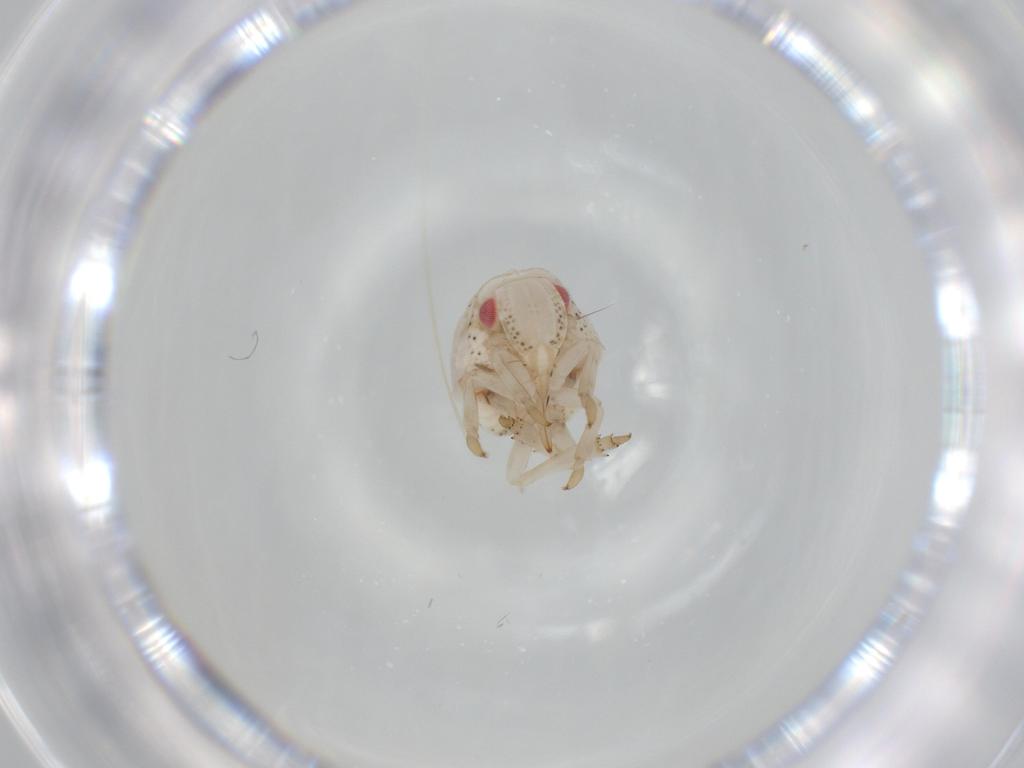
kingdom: Animalia
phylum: Arthropoda
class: Insecta
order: Hemiptera
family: Acanaloniidae
